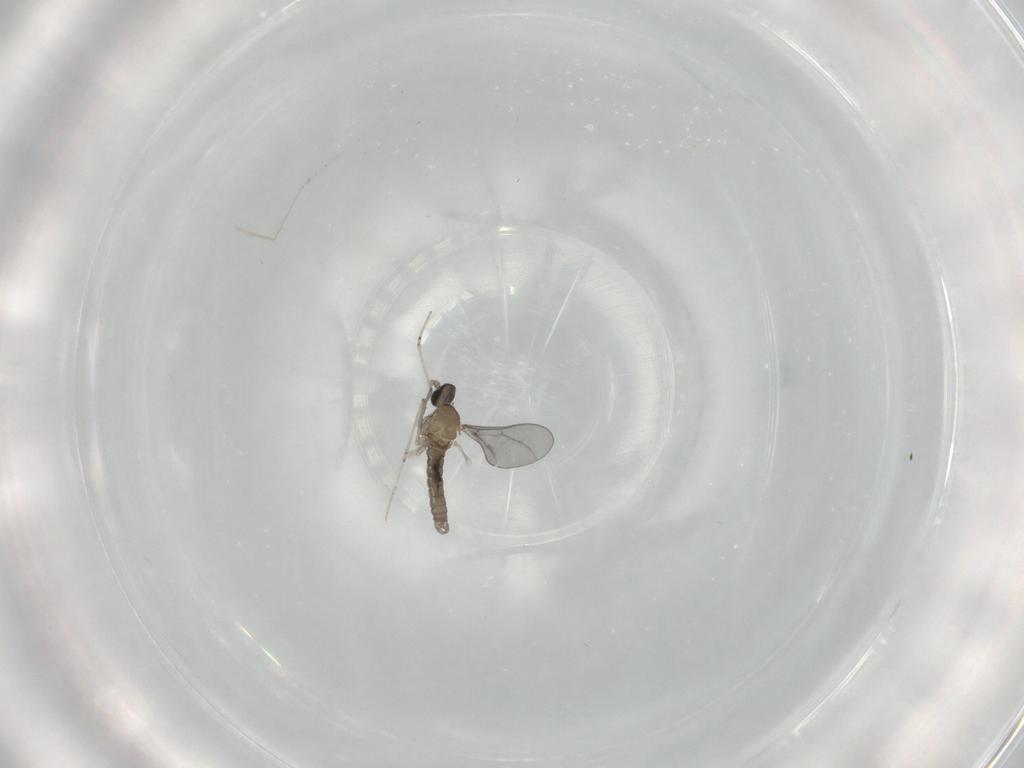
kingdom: Animalia
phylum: Arthropoda
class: Insecta
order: Diptera
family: Cecidomyiidae
